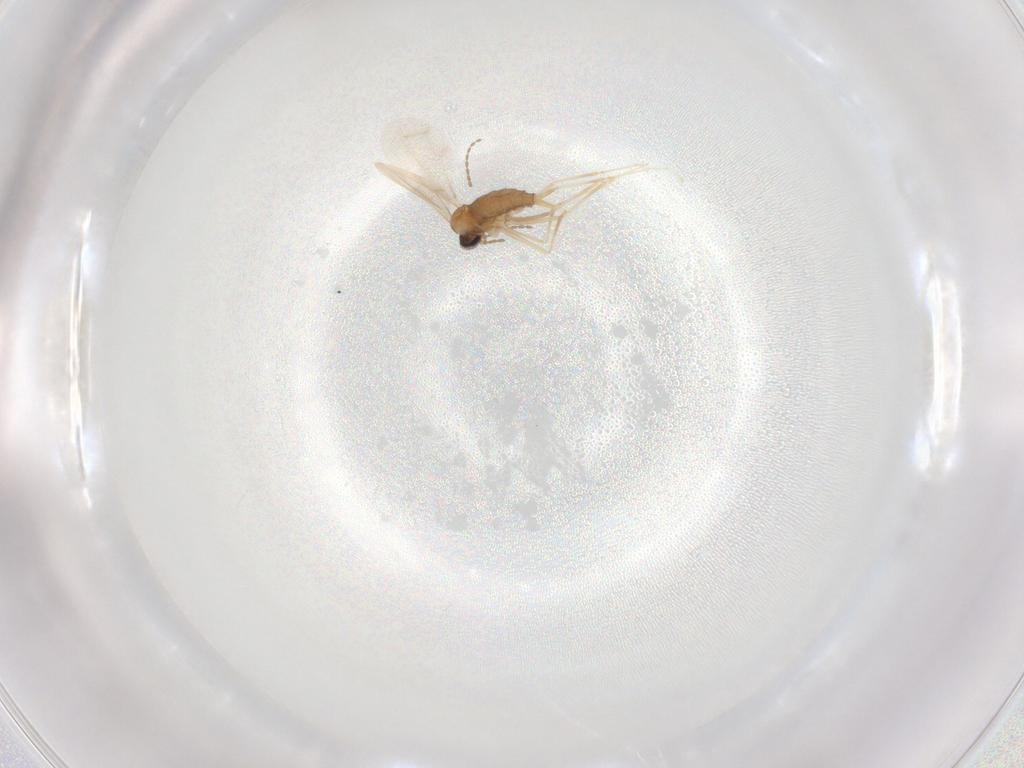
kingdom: Animalia
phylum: Arthropoda
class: Insecta
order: Diptera
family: Cecidomyiidae
